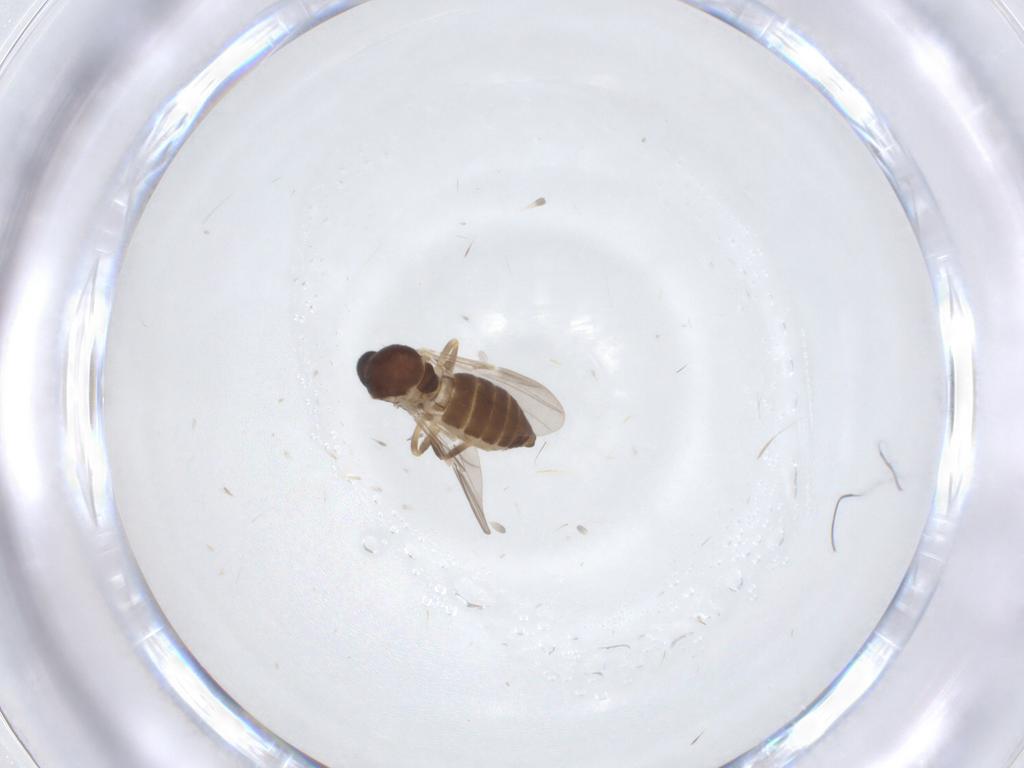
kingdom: Animalia
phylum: Arthropoda
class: Insecta
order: Diptera
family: Ceratopogonidae
